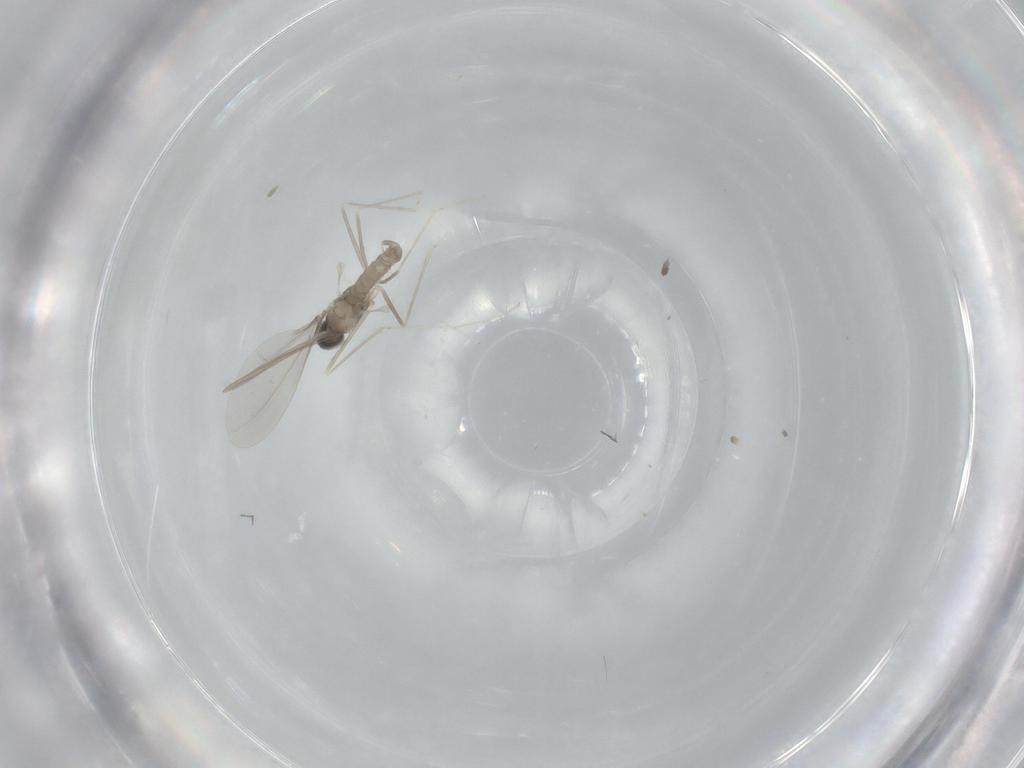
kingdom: Animalia
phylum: Arthropoda
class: Insecta
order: Diptera
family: Cecidomyiidae
